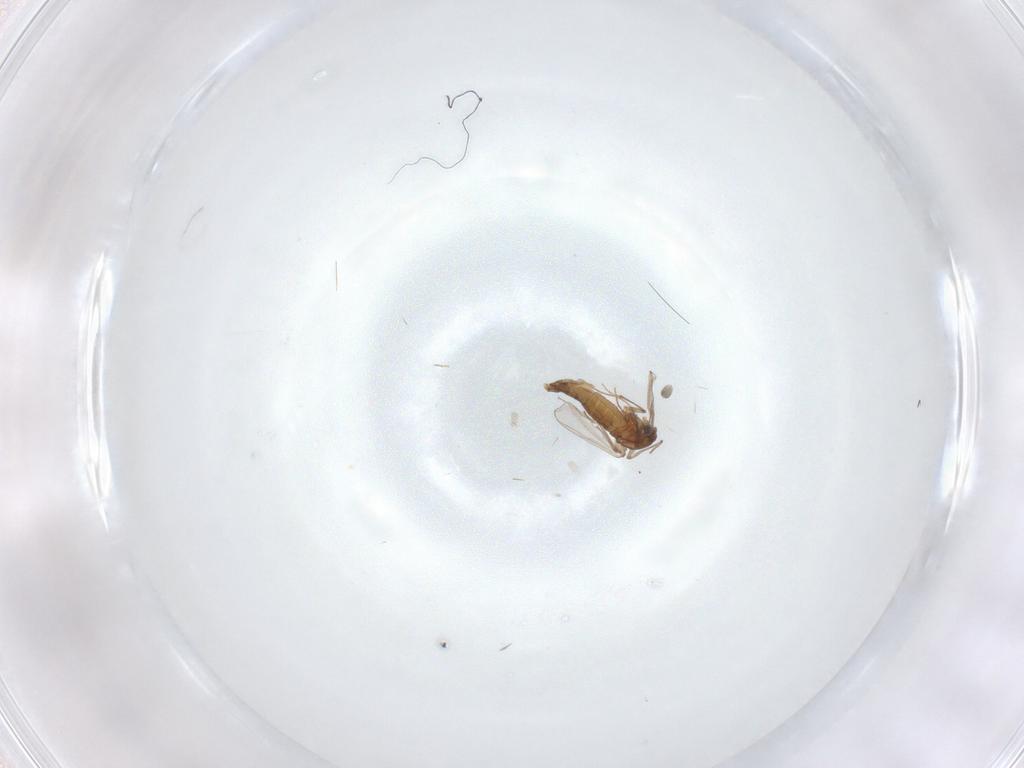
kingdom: Animalia
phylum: Arthropoda
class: Insecta
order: Diptera
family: Chironomidae
